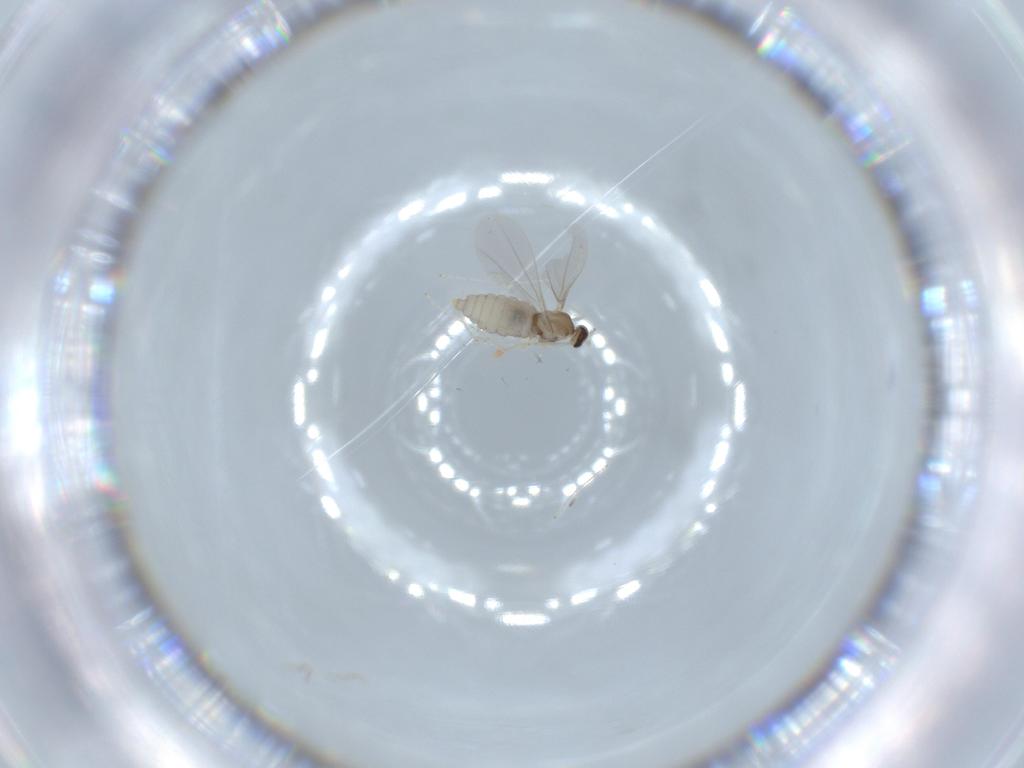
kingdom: Animalia
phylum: Arthropoda
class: Insecta
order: Diptera
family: Cecidomyiidae
